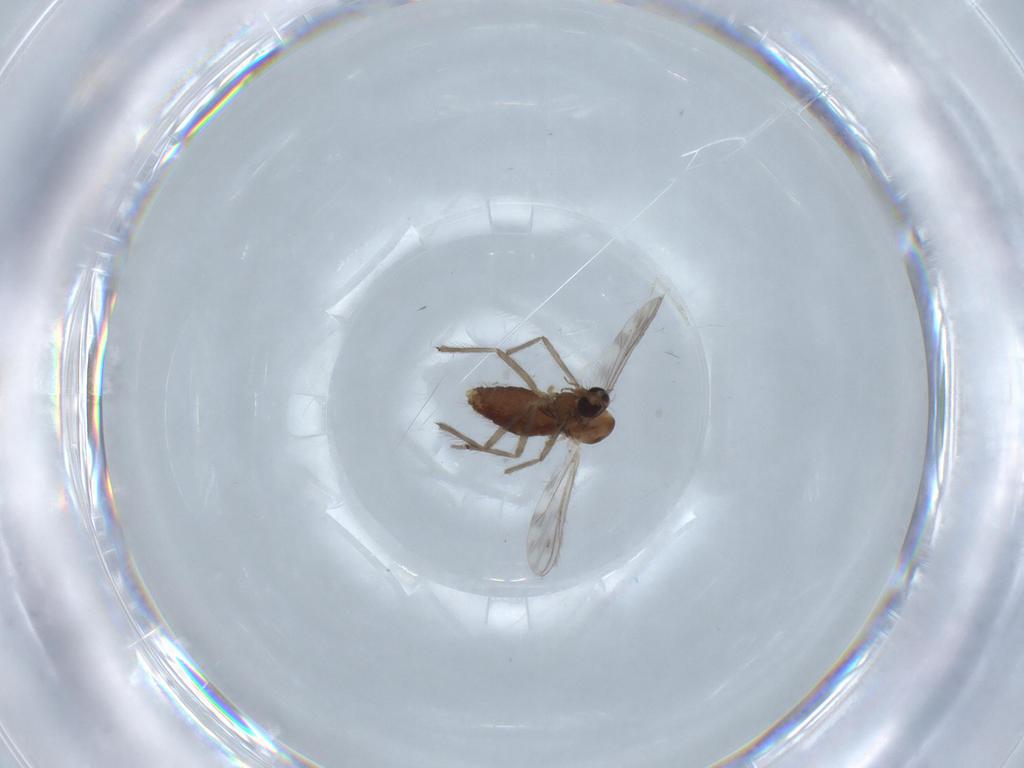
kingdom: Animalia
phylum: Arthropoda
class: Insecta
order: Diptera
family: Chironomidae
